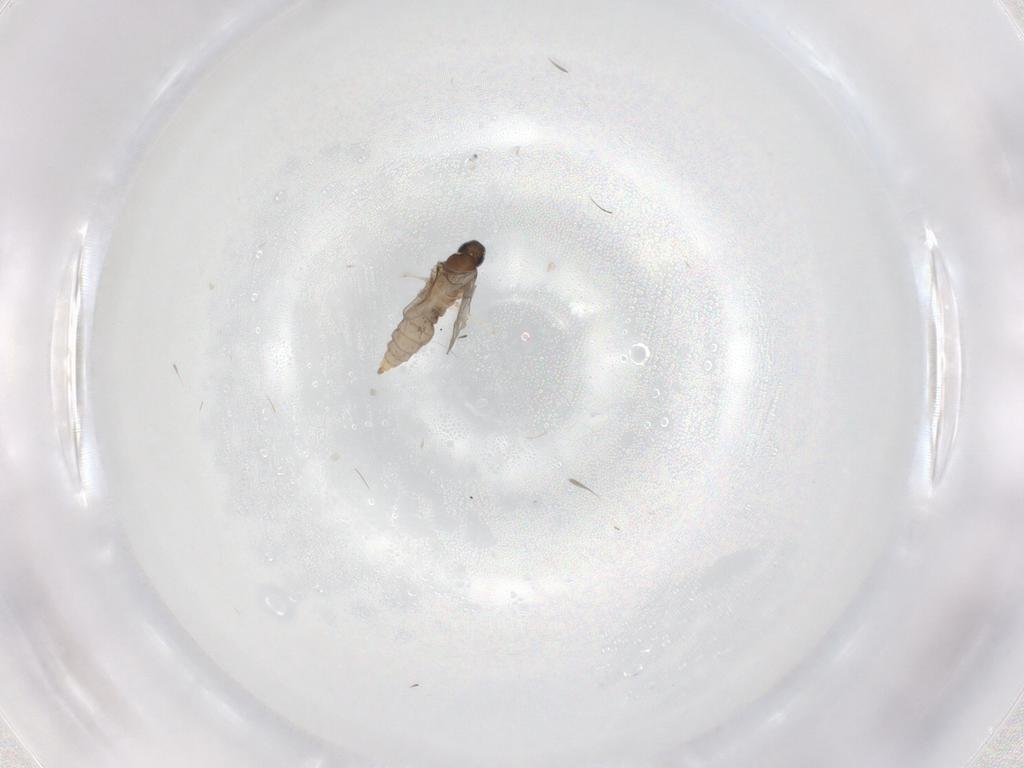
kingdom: Animalia
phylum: Arthropoda
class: Insecta
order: Diptera
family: Cecidomyiidae
